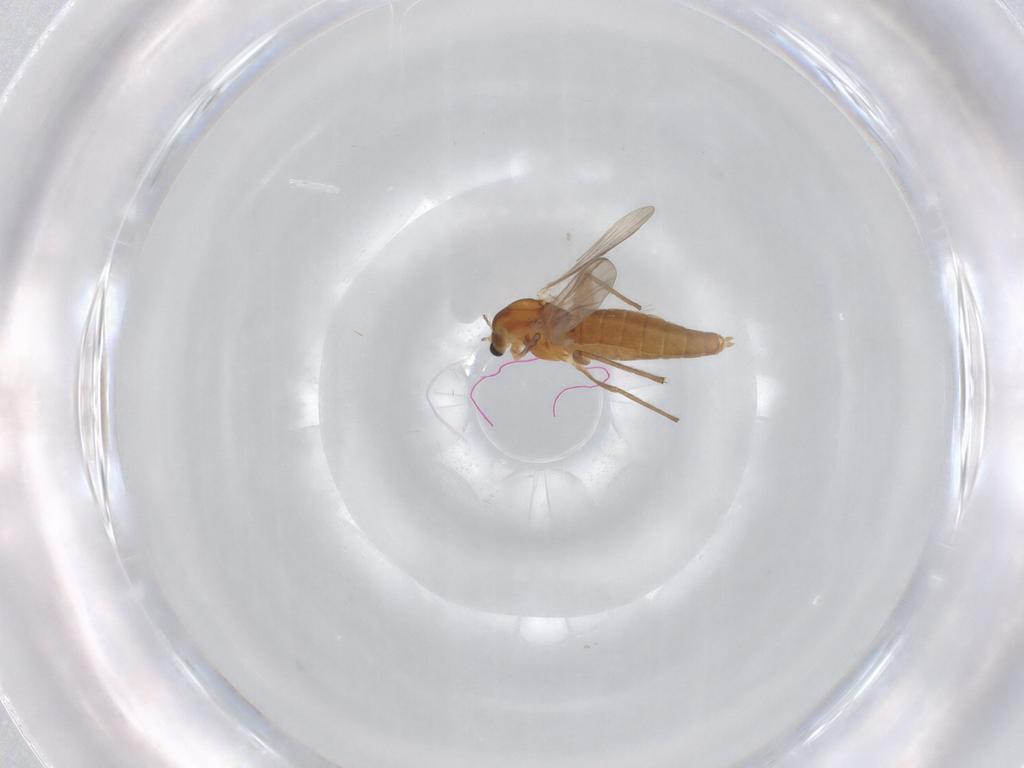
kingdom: Animalia
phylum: Arthropoda
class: Insecta
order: Diptera
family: Chironomidae
